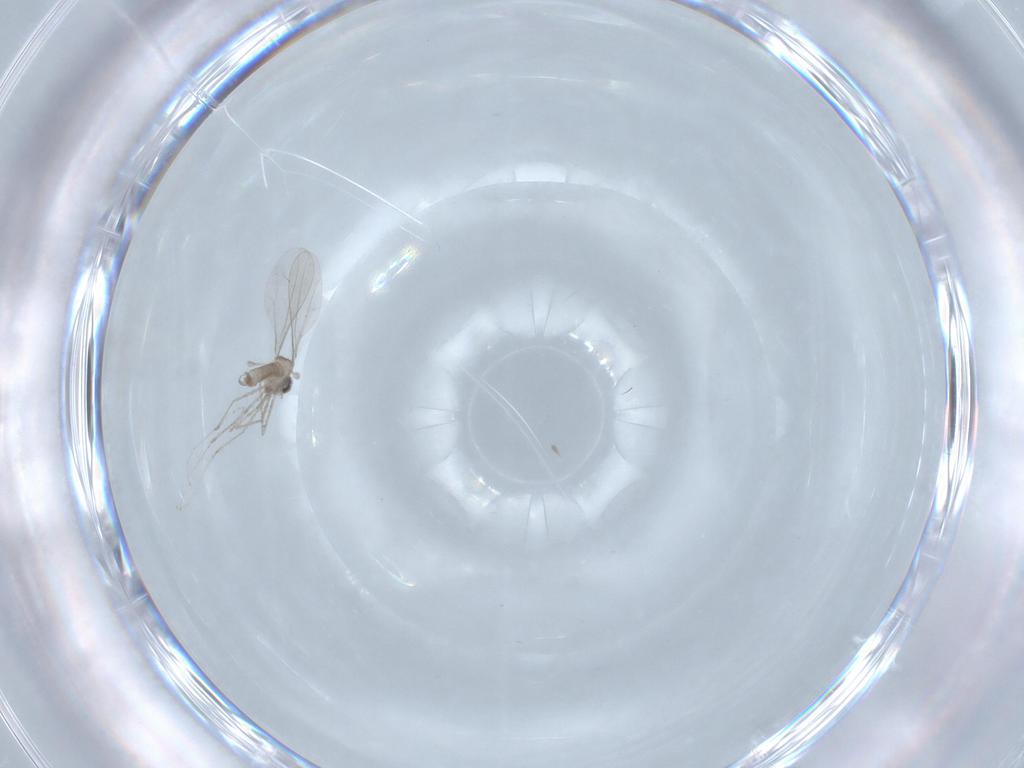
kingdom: Animalia
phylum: Arthropoda
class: Insecta
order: Diptera
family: Cecidomyiidae
